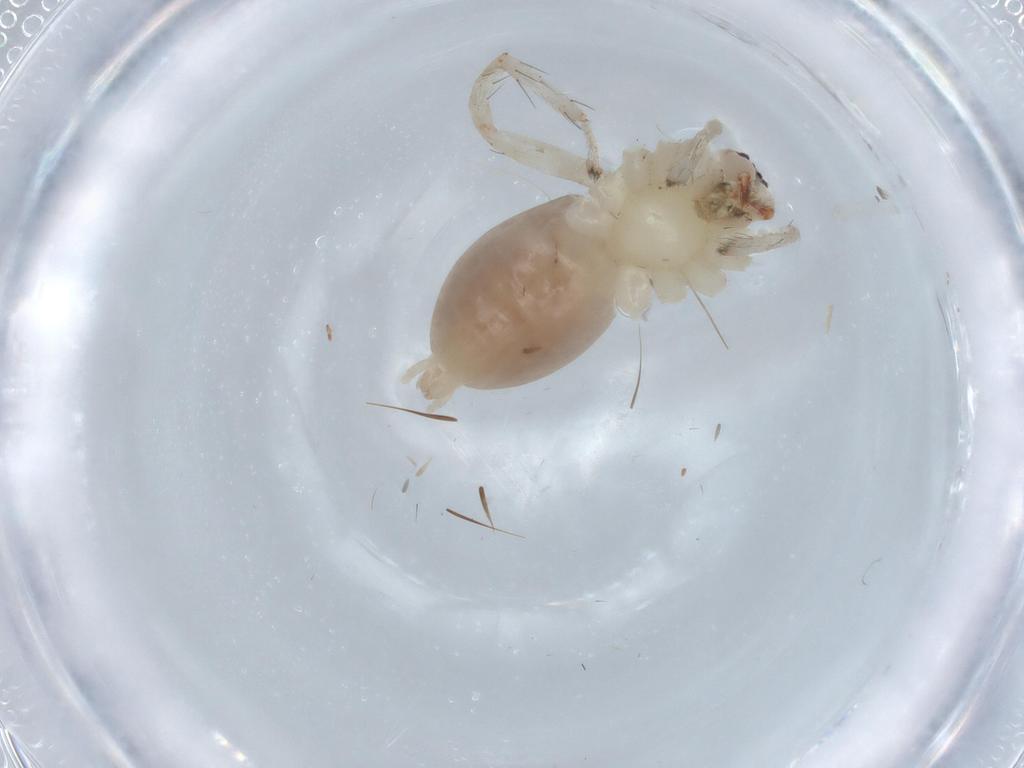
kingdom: Animalia
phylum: Arthropoda
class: Arachnida
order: Araneae
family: Anyphaenidae
